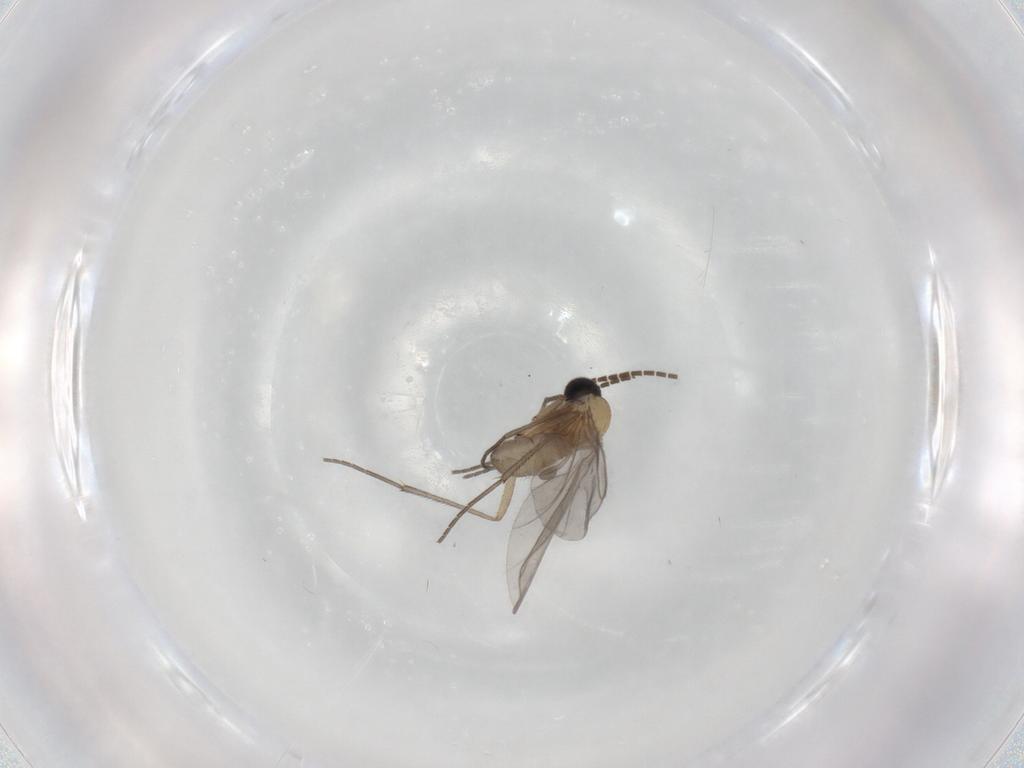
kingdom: Animalia
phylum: Arthropoda
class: Insecta
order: Diptera
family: Sciaridae
